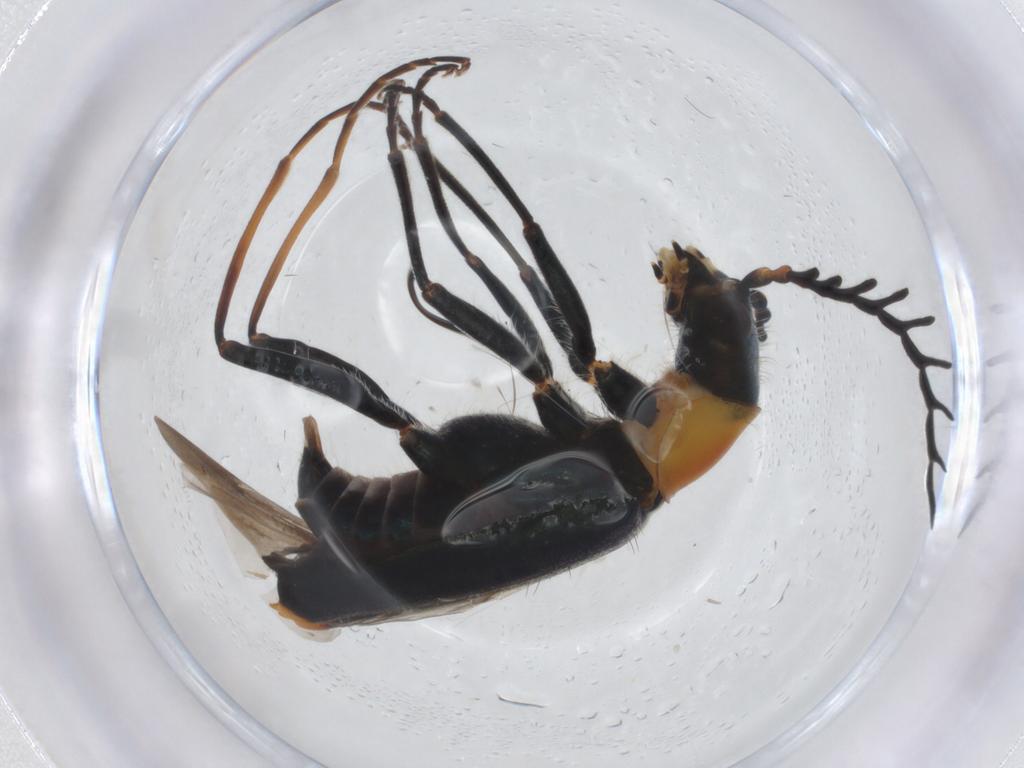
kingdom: Animalia
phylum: Arthropoda
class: Insecta
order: Coleoptera
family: Melyridae
